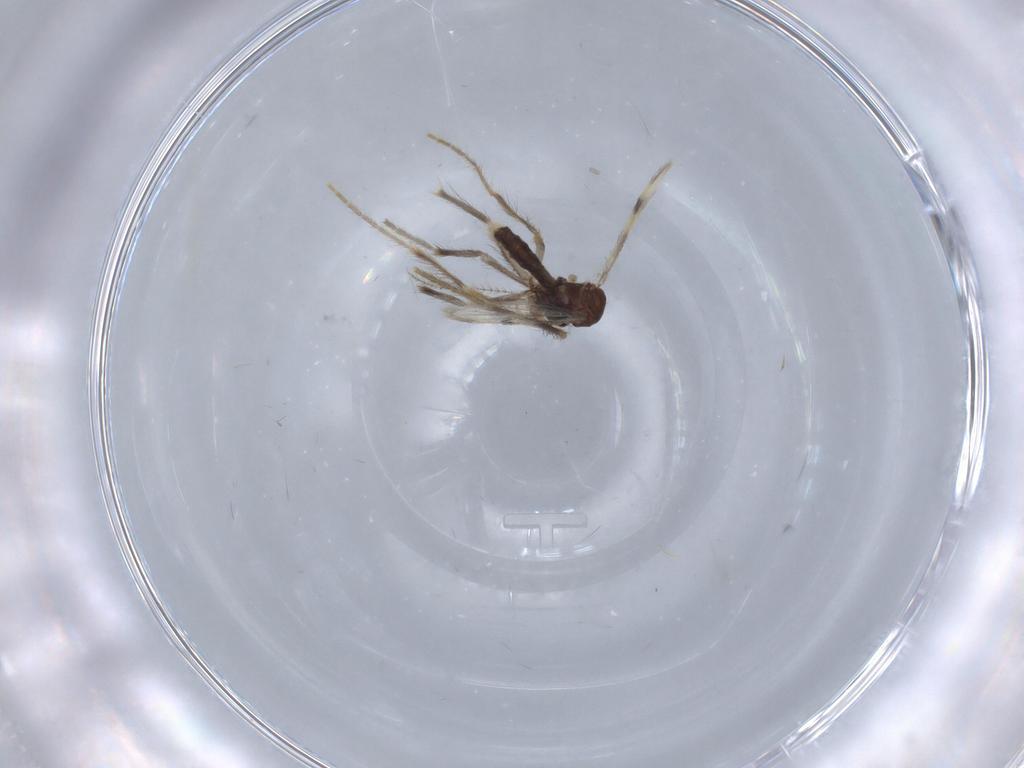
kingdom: Animalia
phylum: Arthropoda
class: Insecta
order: Diptera
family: Corethrellidae
